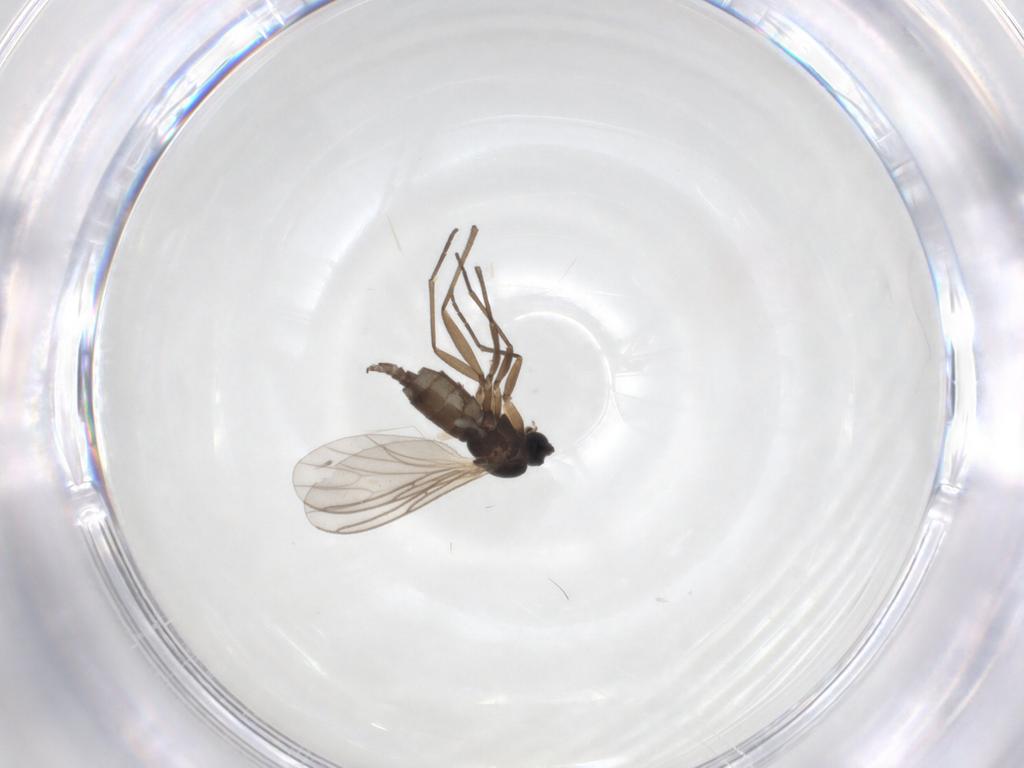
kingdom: Animalia
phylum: Arthropoda
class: Insecta
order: Diptera
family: Sciaridae
